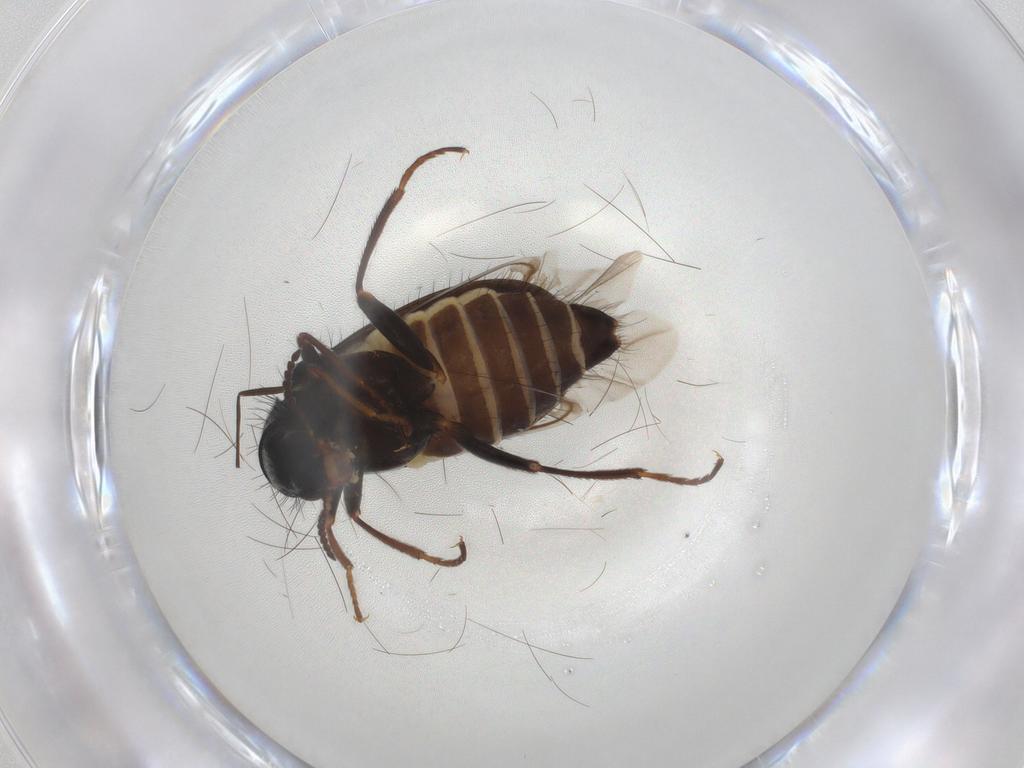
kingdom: Animalia
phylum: Arthropoda
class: Insecta
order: Coleoptera
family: Melyridae
